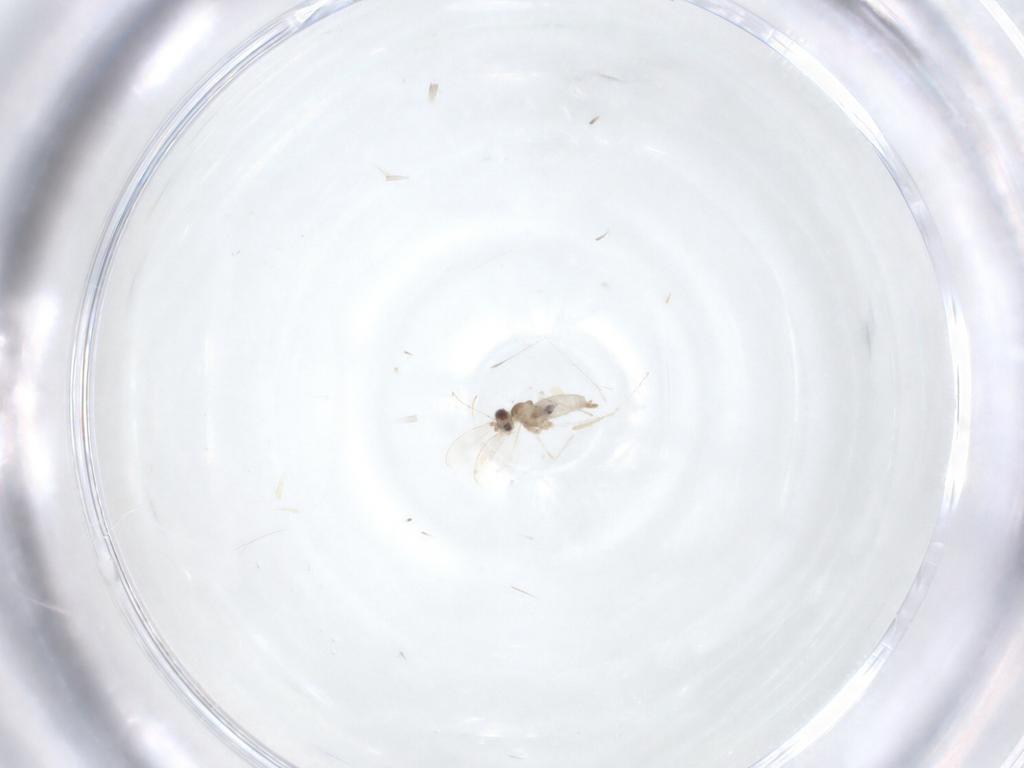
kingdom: Animalia
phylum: Arthropoda
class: Insecta
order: Diptera
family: Cecidomyiidae
